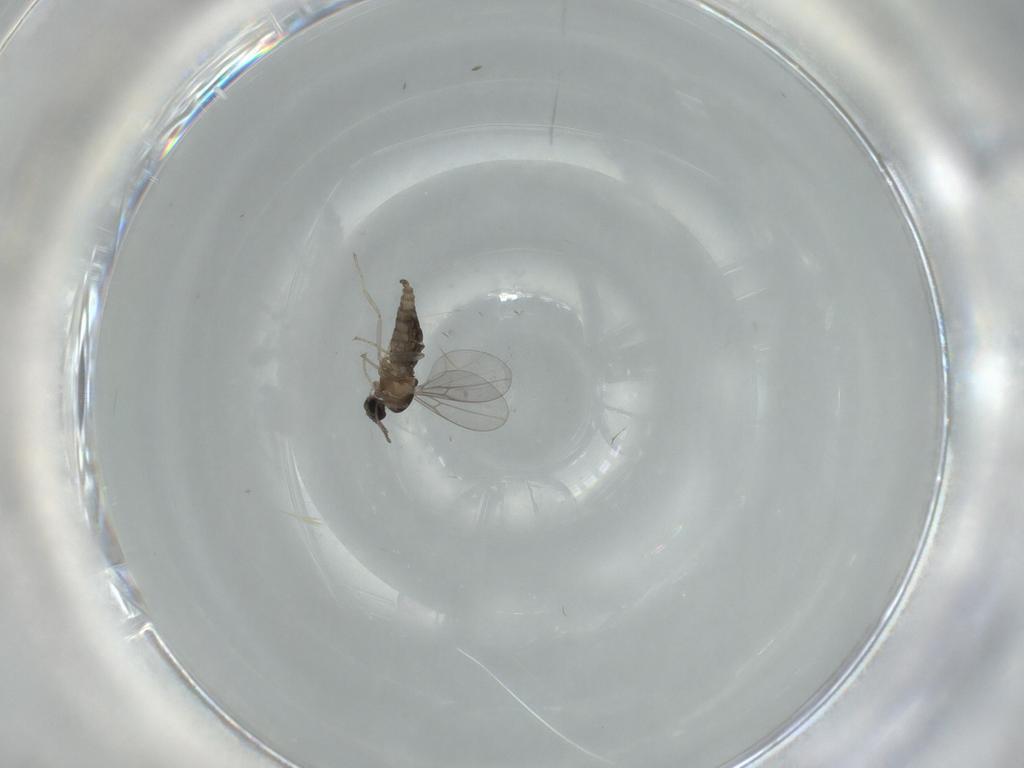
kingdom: Animalia
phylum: Arthropoda
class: Insecta
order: Diptera
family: Cecidomyiidae
